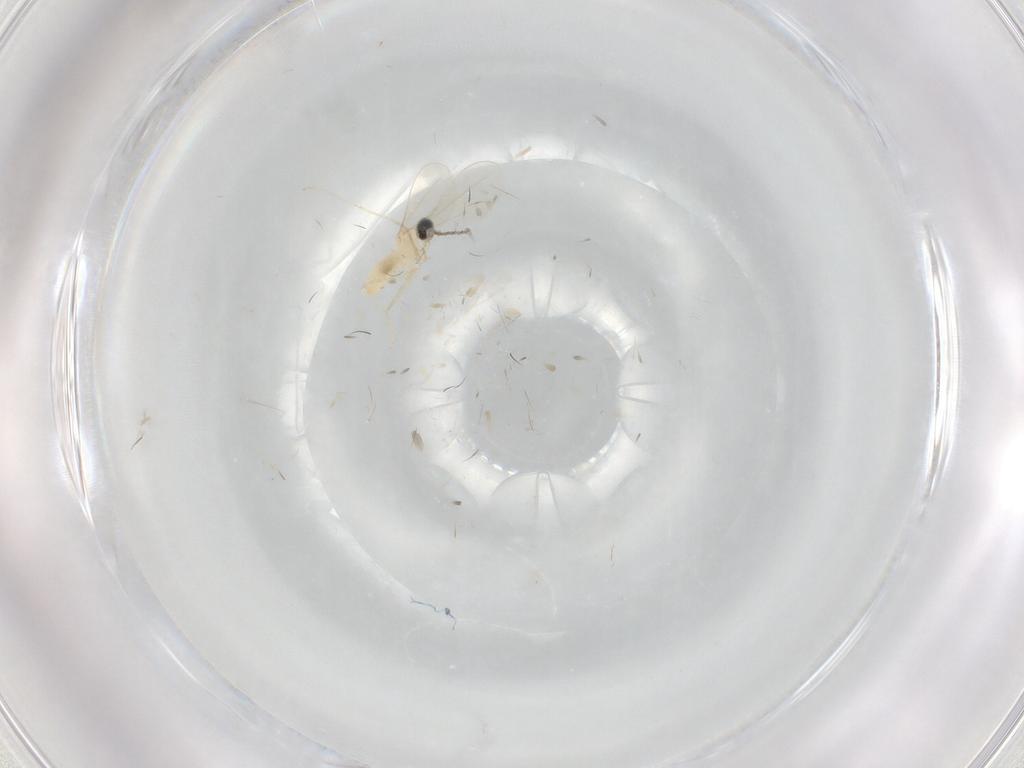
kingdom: Animalia
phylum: Arthropoda
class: Insecta
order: Diptera
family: Cecidomyiidae
